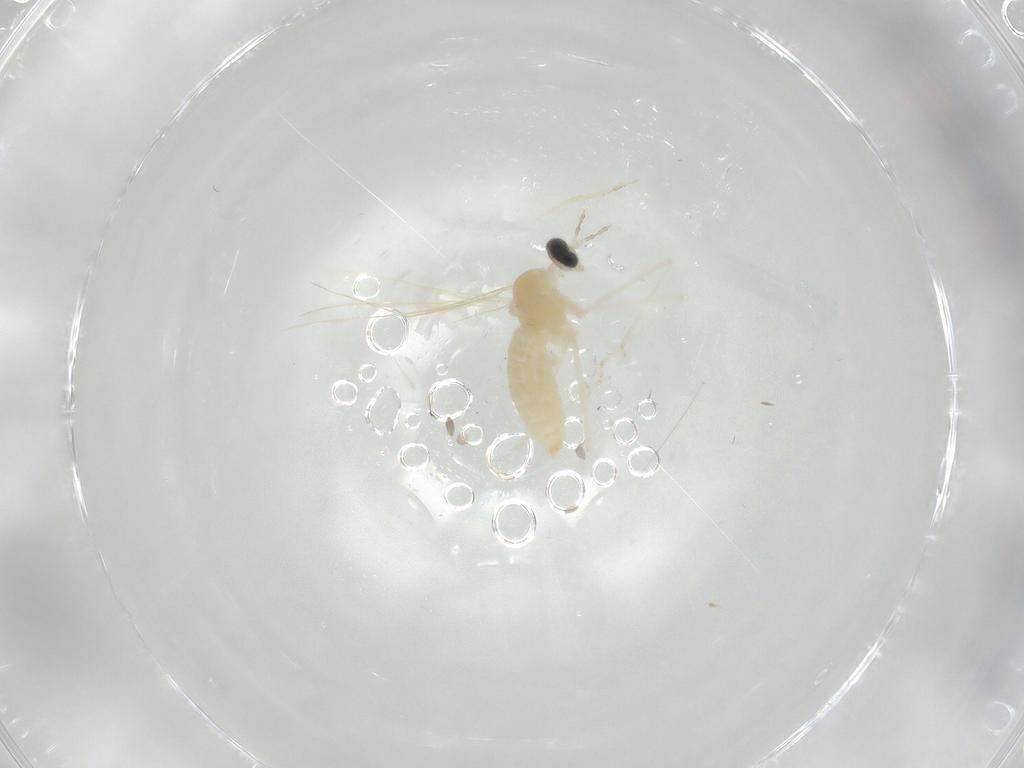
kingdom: Animalia
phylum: Arthropoda
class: Insecta
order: Diptera
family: Cecidomyiidae
